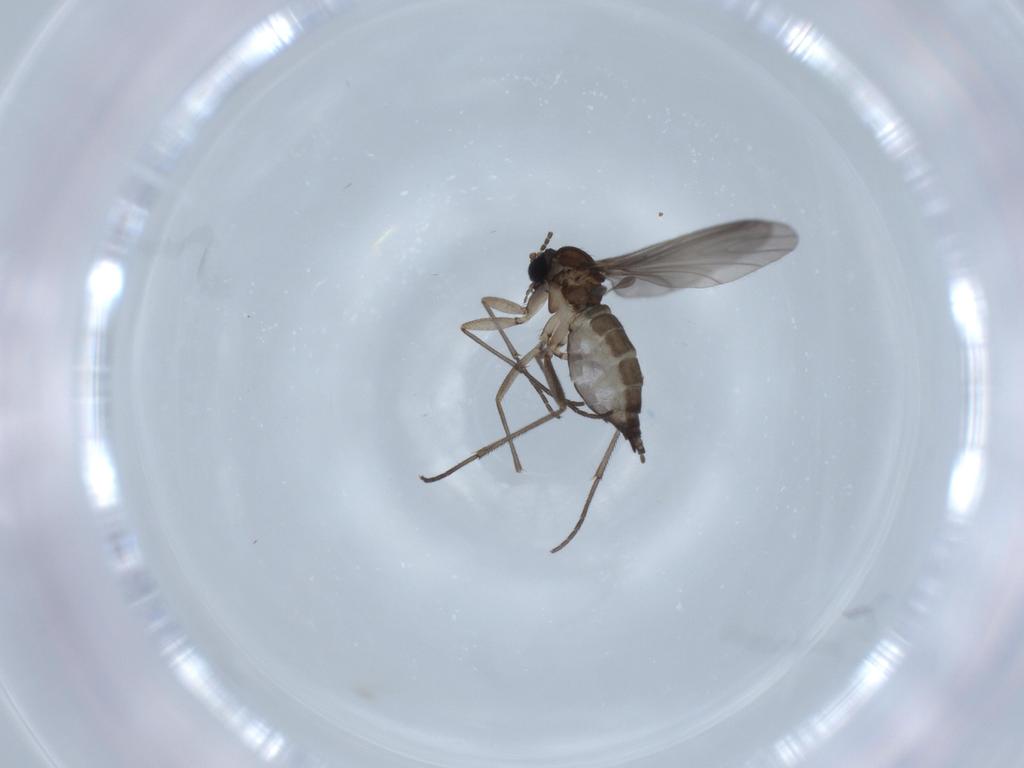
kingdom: Animalia
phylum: Arthropoda
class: Insecta
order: Diptera
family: Sciaridae
